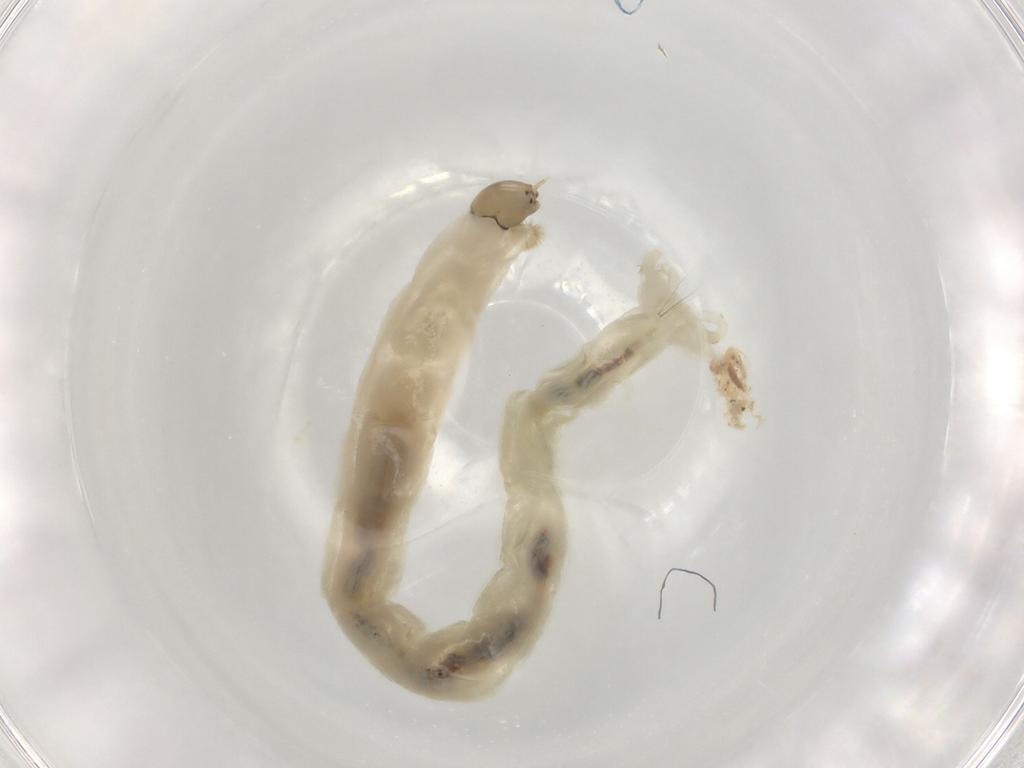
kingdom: Animalia
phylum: Arthropoda
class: Insecta
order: Diptera
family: Chironomidae
